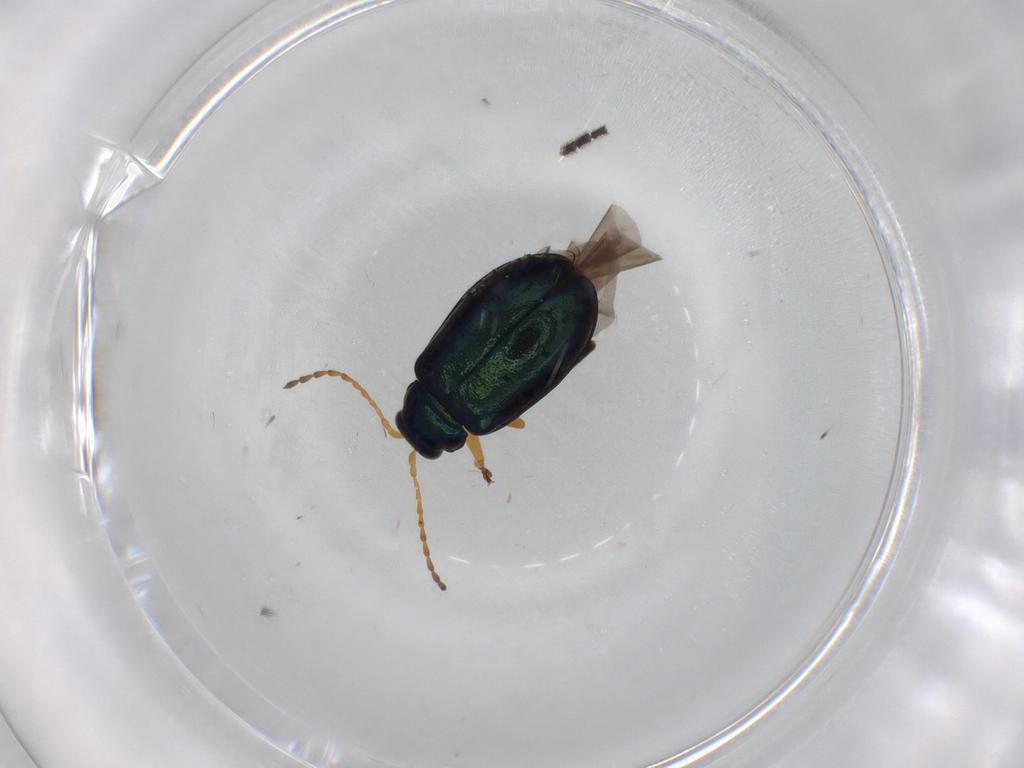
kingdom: Animalia
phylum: Arthropoda
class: Insecta
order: Coleoptera
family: Chrysomelidae
